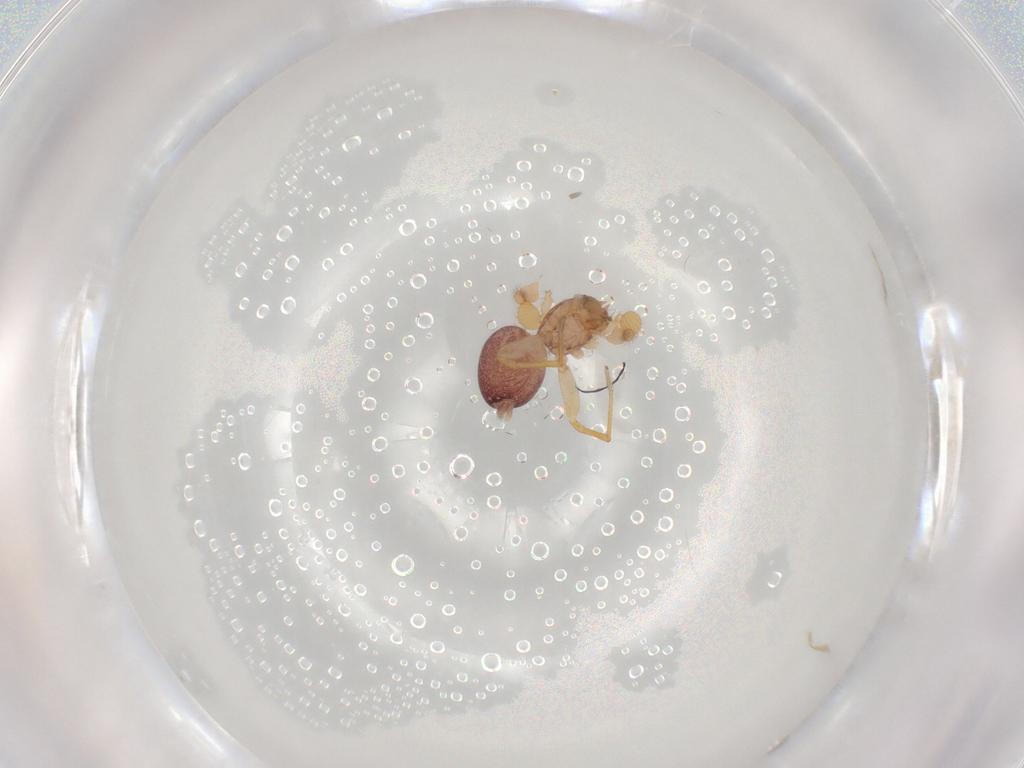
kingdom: Animalia
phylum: Arthropoda
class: Arachnida
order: Araneae
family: Idiopidae
